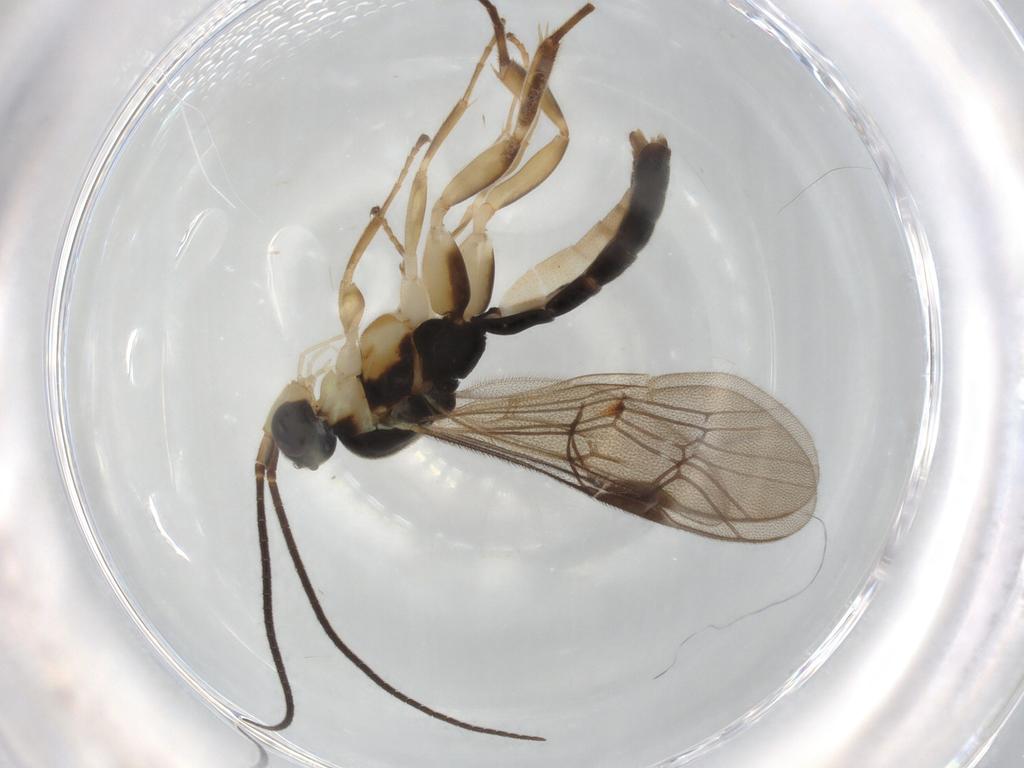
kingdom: Animalia
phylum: Arthropoda
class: Insecta
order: Hymenoptera
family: Ichneumonidae
